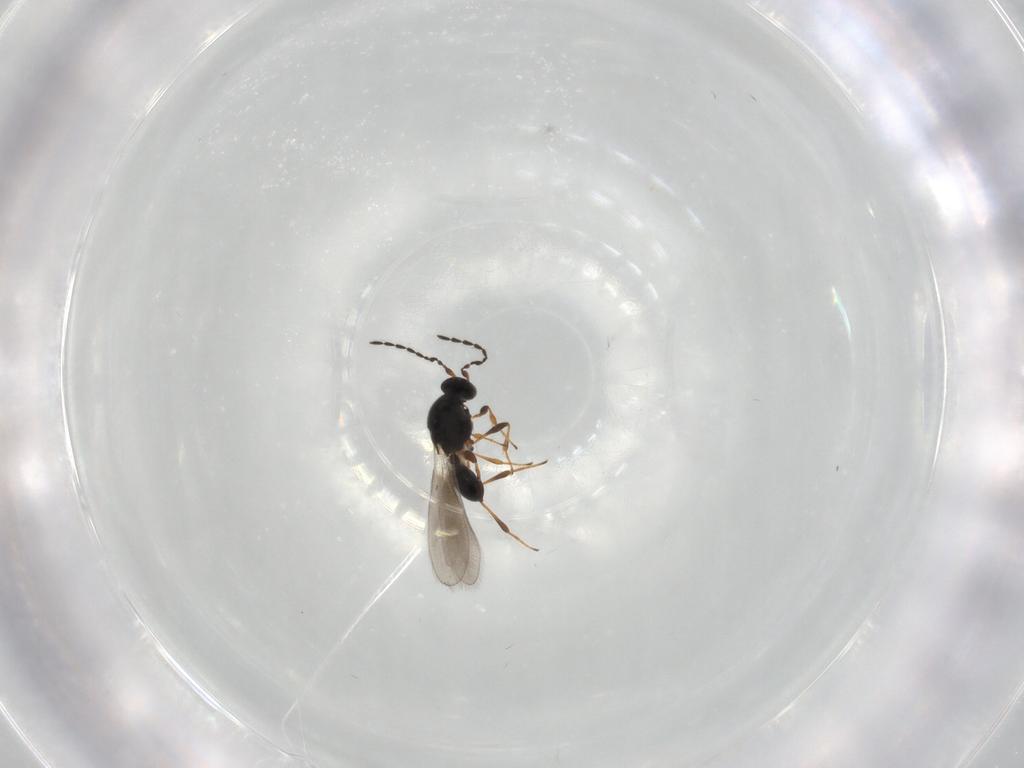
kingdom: Animalia
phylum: Arthropoda
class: Insecta
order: Hymenoptera
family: Platygastridae
